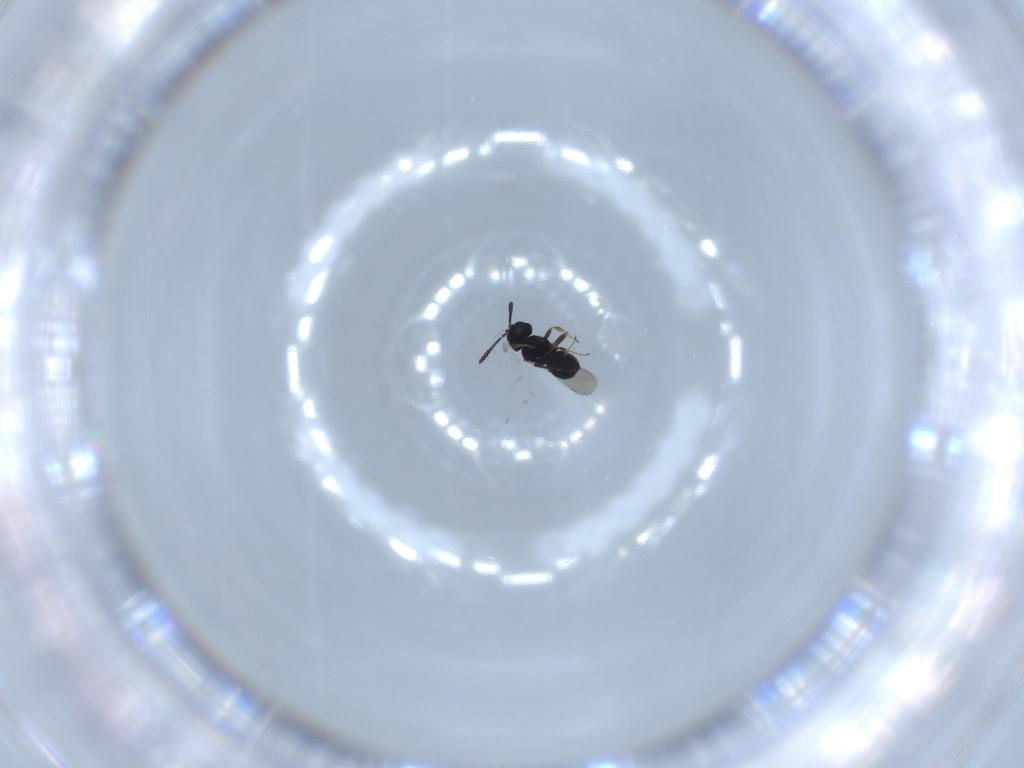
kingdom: Animalia
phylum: Arthropoda
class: Insecta
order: Hymenoptera
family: Scelionidae
